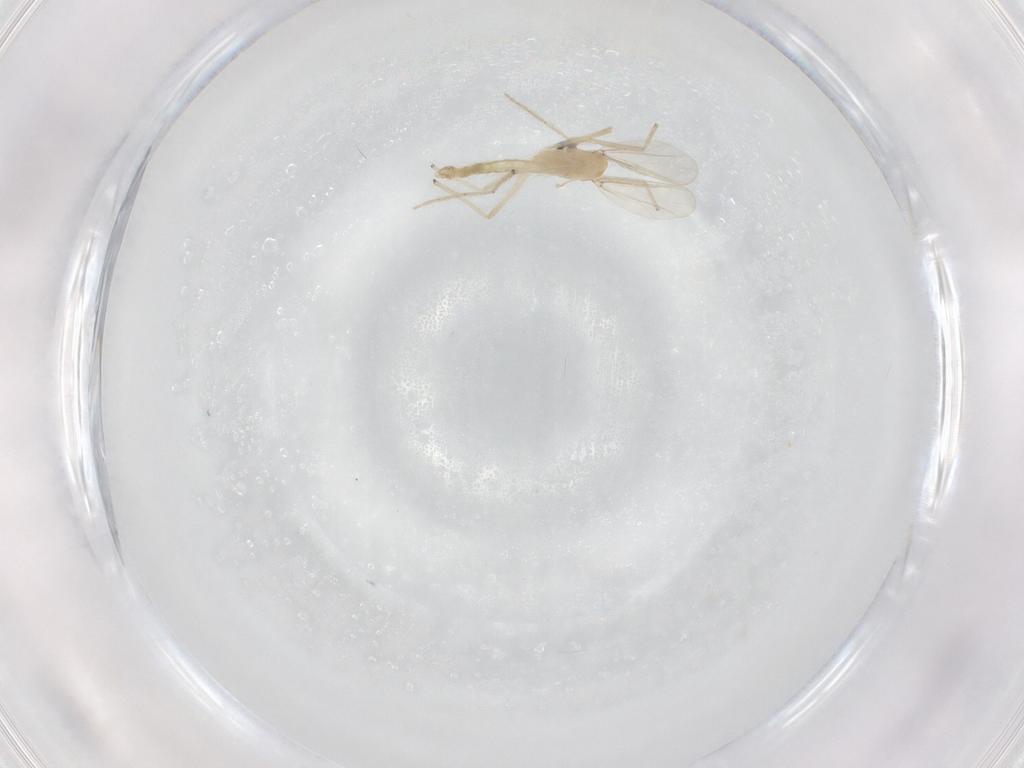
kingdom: Animalia
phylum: Arthropoda
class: Insecta
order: Diptera
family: Chironomidae
